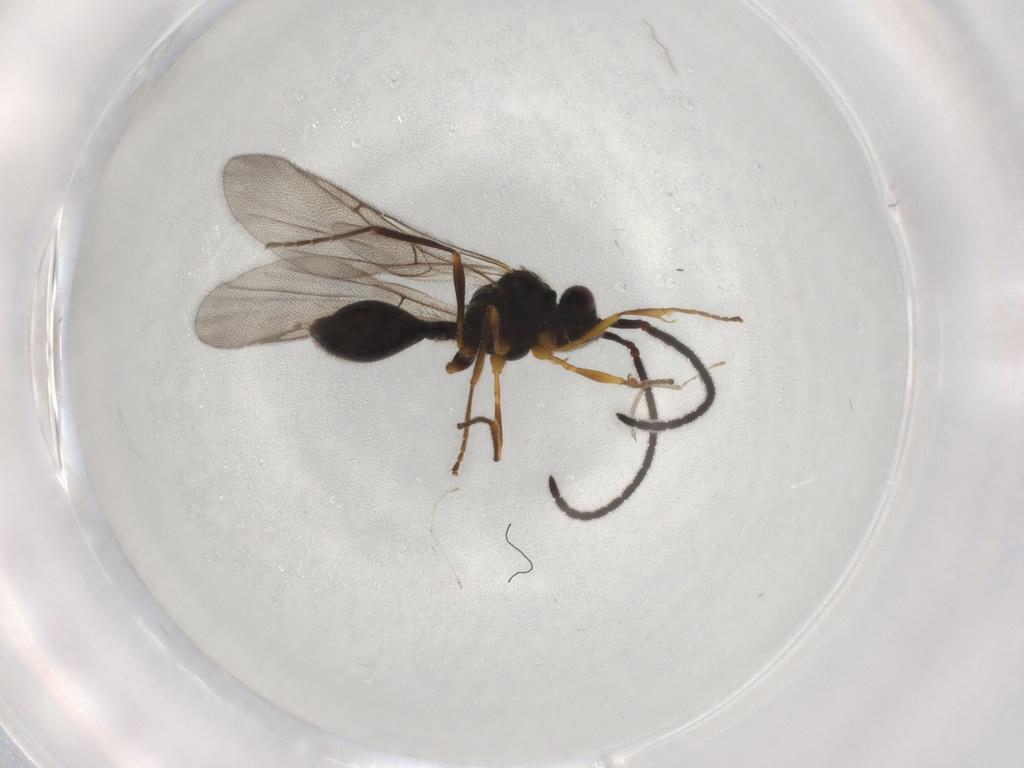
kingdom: Animalia
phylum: Arthropoda
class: Insecta
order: Hymenoptera
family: Diapriidae
